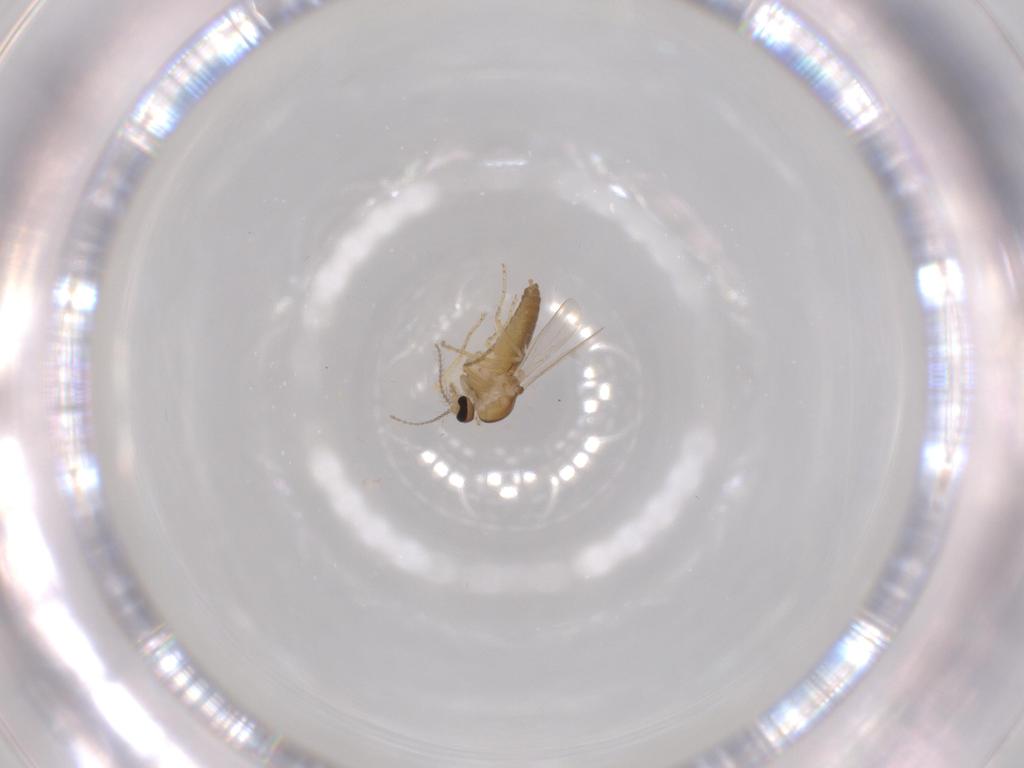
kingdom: Animalia
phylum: Arthropoda
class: Insecta
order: Diptera
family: Ceratopogonidae
